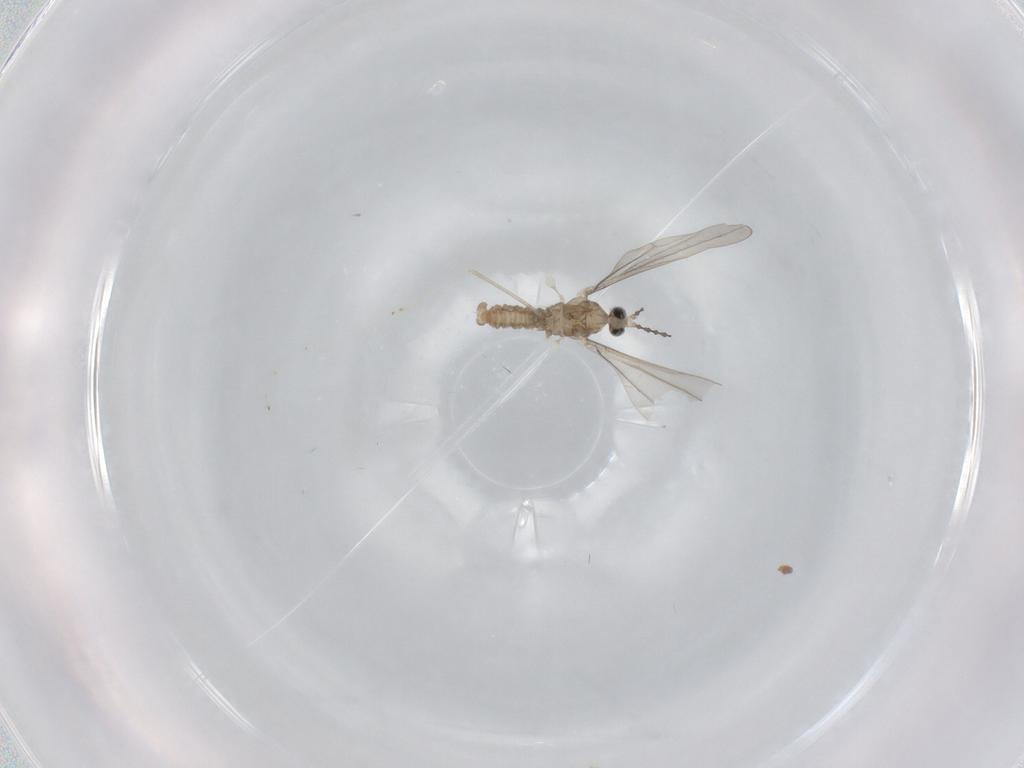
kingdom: Animalia
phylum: Arthropoda
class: Insecta
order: Diptera
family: Cecidomyiidae
